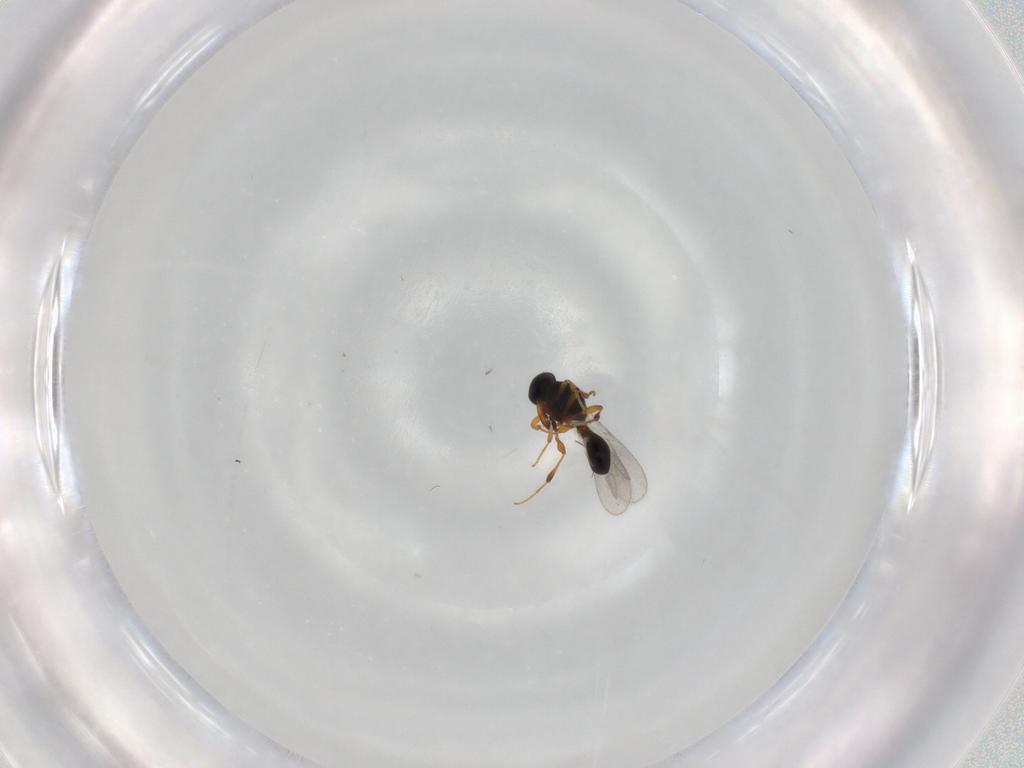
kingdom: Animalia
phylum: Arthropoda
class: Insecta
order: Hymenoptera
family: Platygastridae
